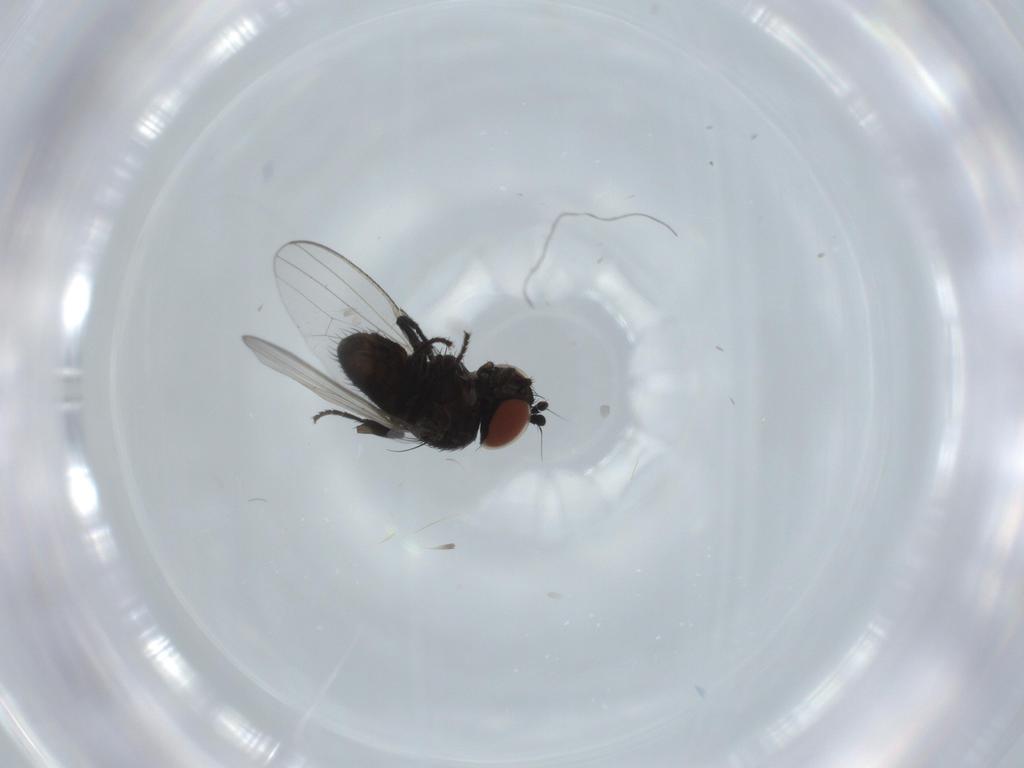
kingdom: Animalia
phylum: Arthropoda
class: Insecta
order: Diptera
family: Milichiidae
